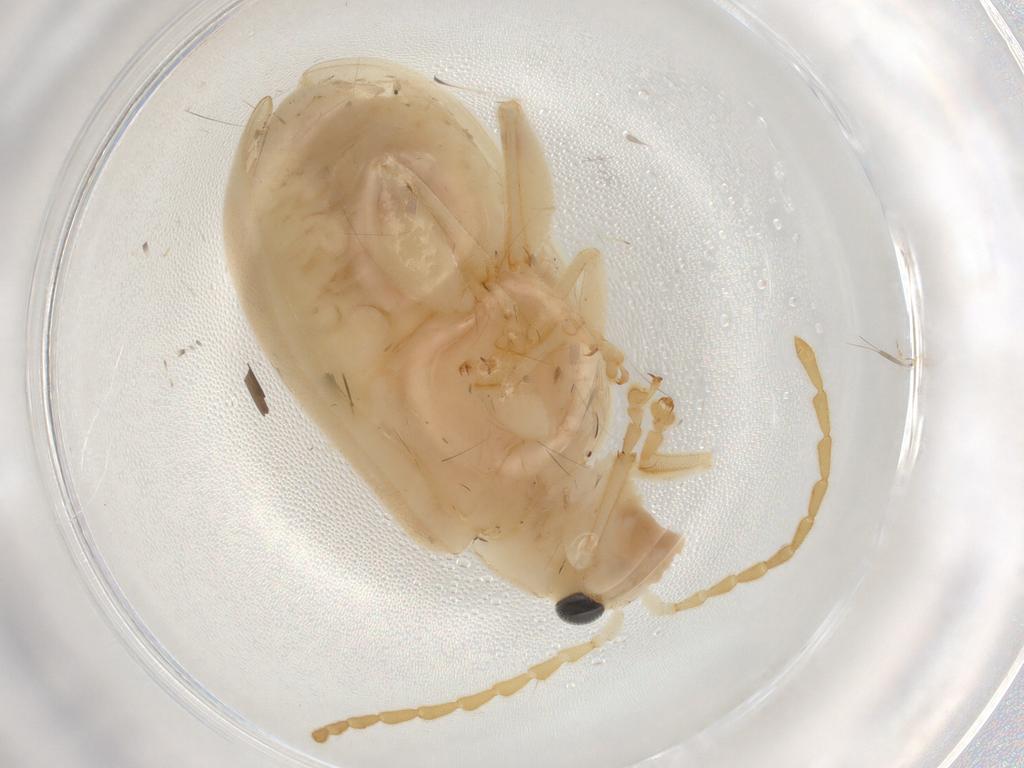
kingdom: Animalia
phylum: Arthropoda
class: Insecta
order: Coleoptera
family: Chrysomelidae
